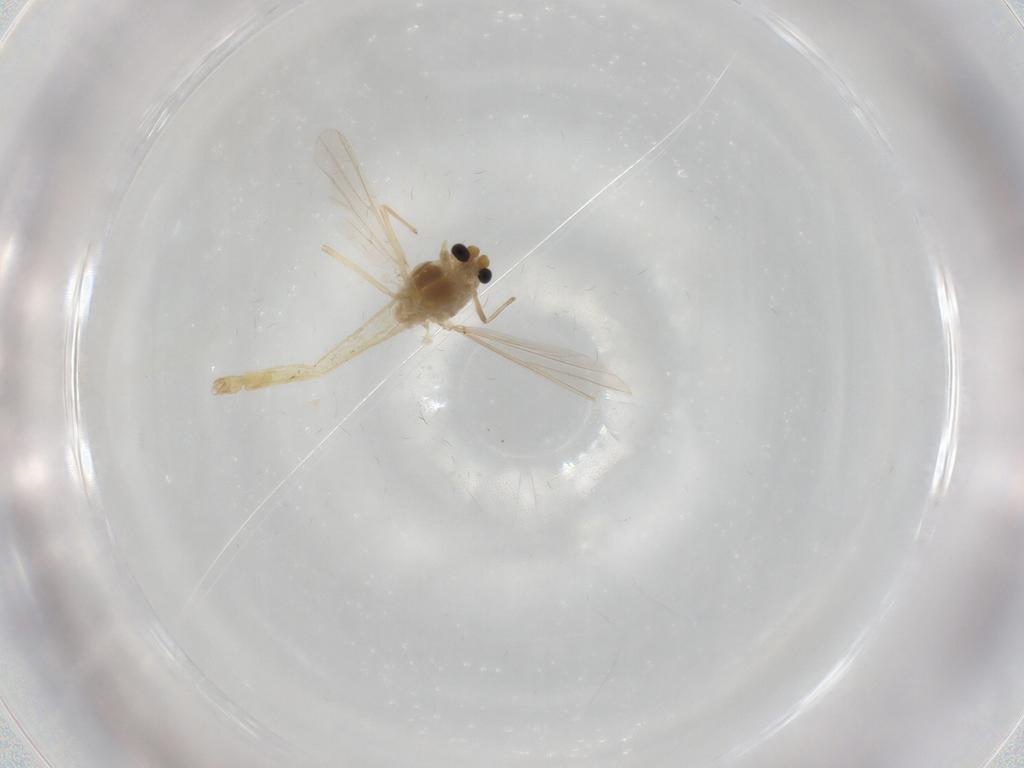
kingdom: Animalia
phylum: Arthropoda
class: Insecta
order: Diptera
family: Chironomidae
